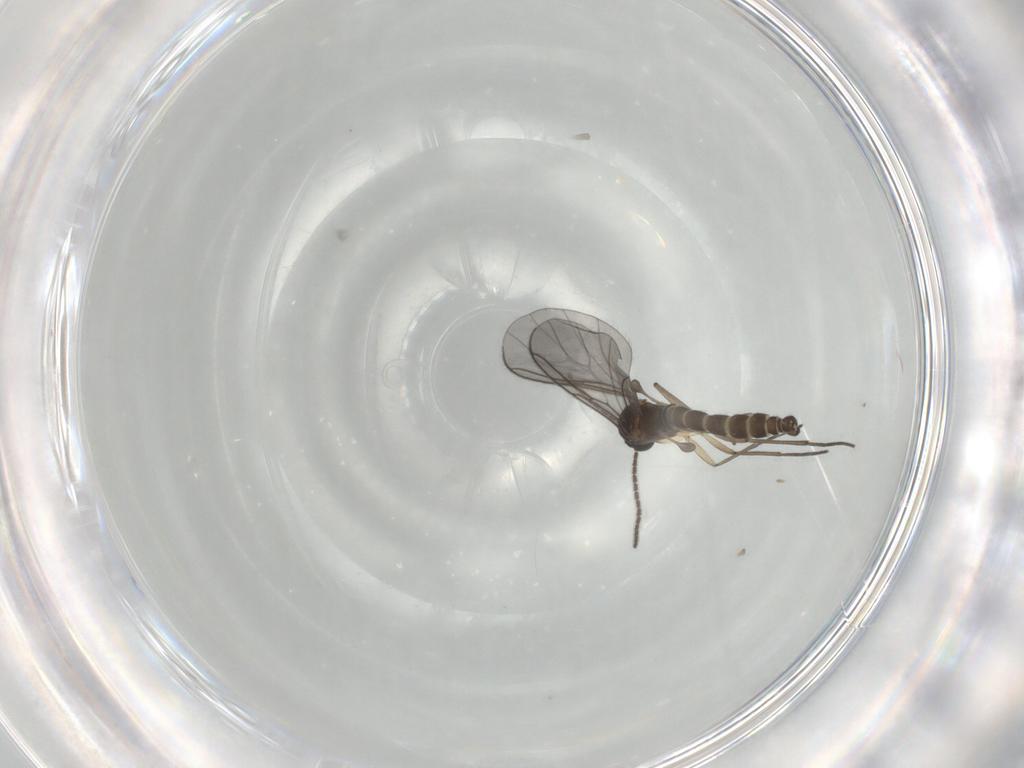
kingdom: Animalia
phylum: Arthropoda
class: Insecta
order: Diptera
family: Sciaridae
